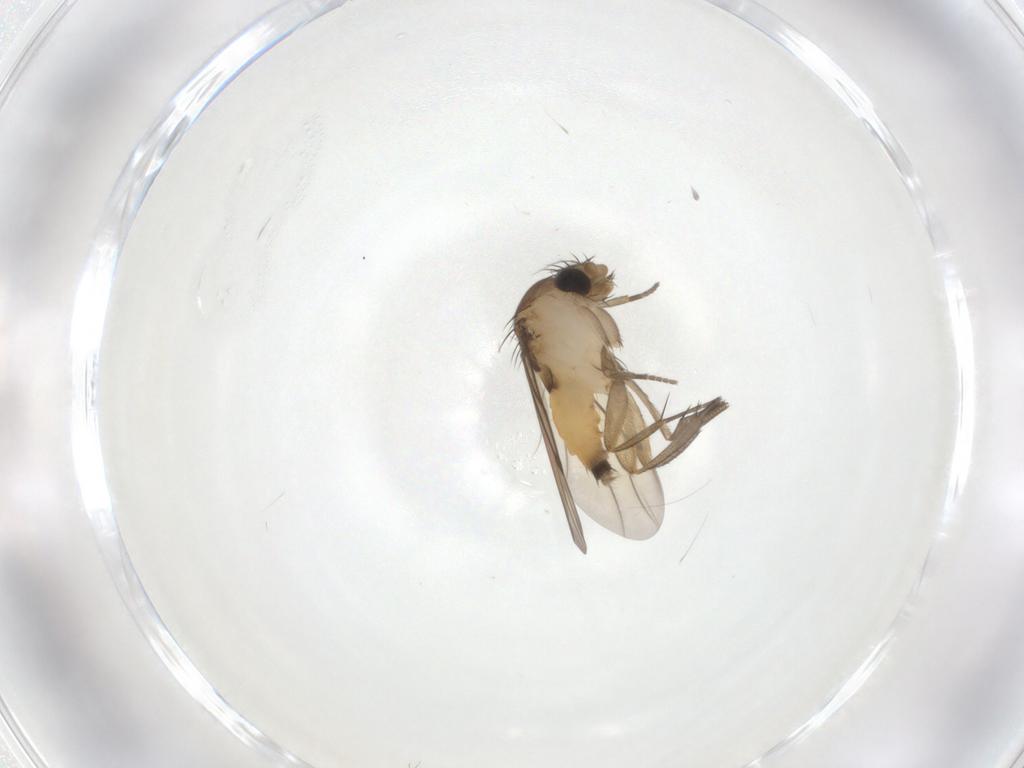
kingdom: Animalia
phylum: Arthropoda
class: Insecta
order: Diptera
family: Phoridae
